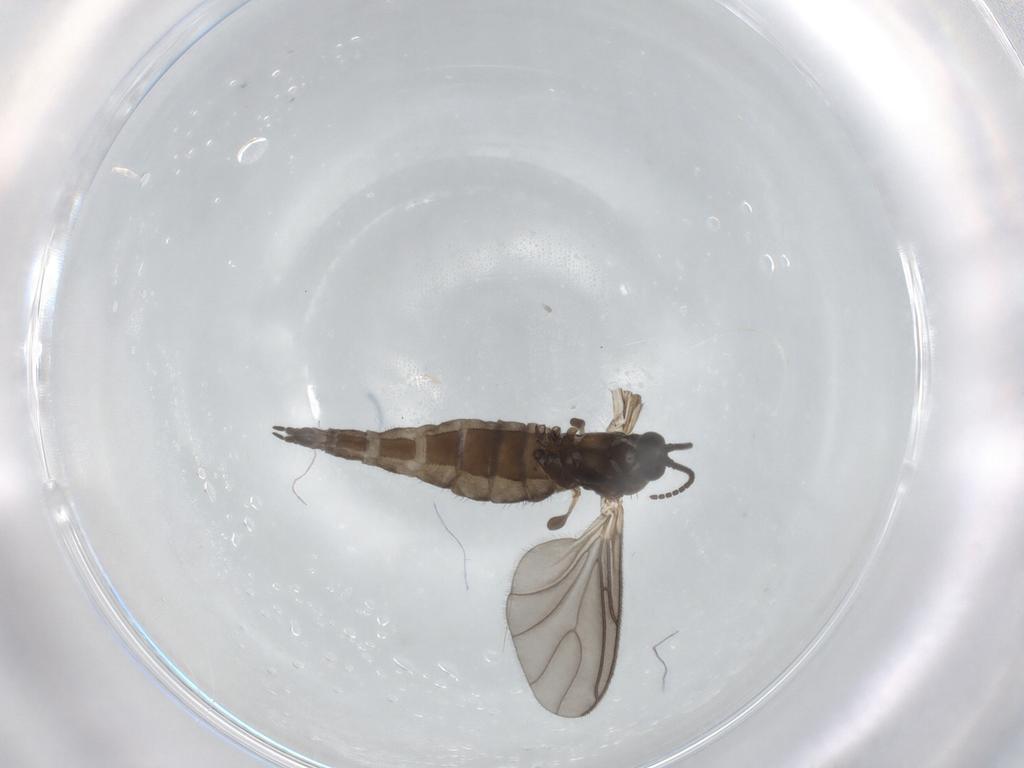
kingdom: Animalia
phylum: Arthropoda
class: Insecta
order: Diptera
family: Sciaridae
